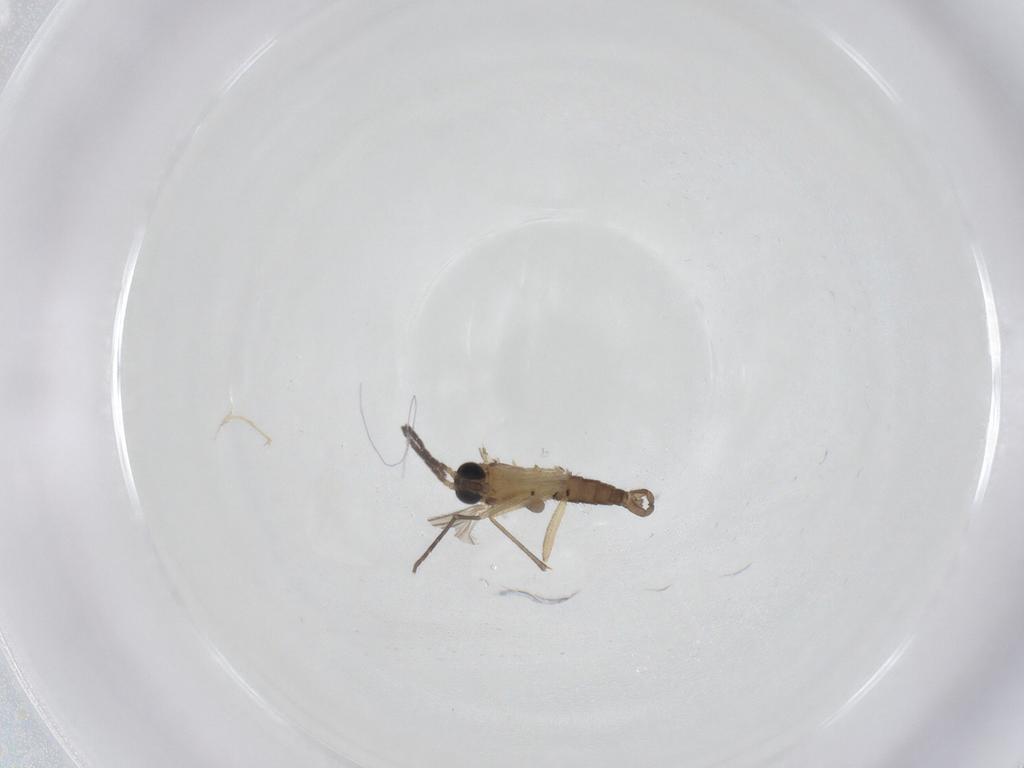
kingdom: Animalia
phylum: Arthropoda
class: Insecta
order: Diptera
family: Sciaridae
